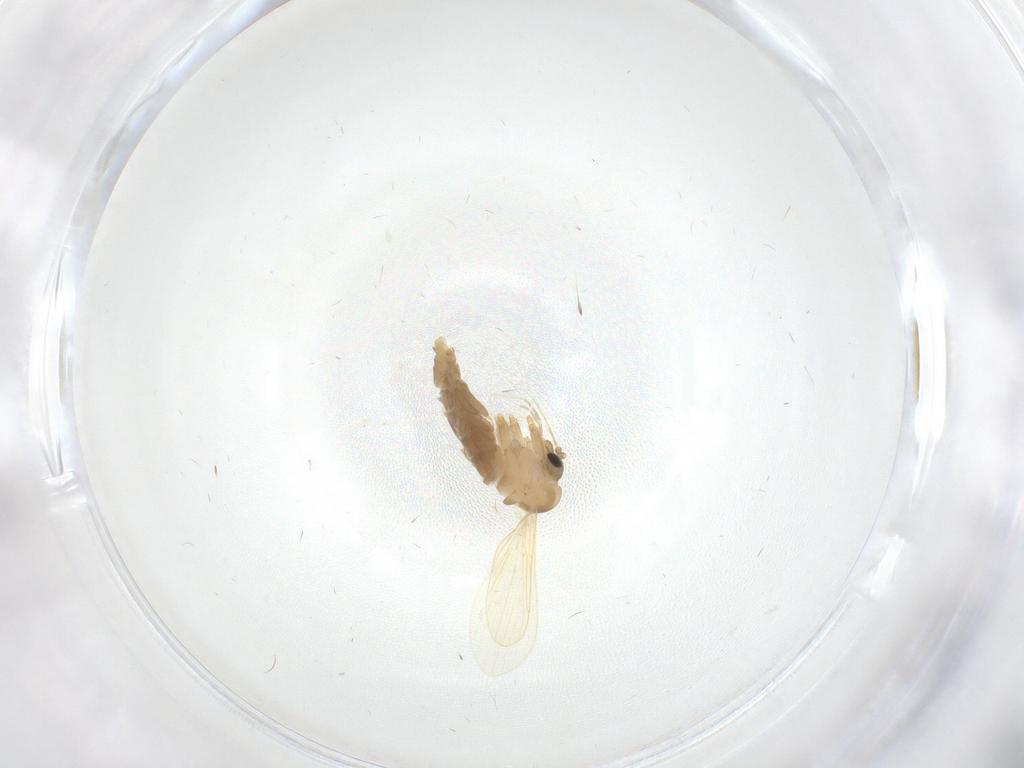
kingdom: Animalia
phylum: Arthropoda
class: Insecta
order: Diptera
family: Psychodidae
